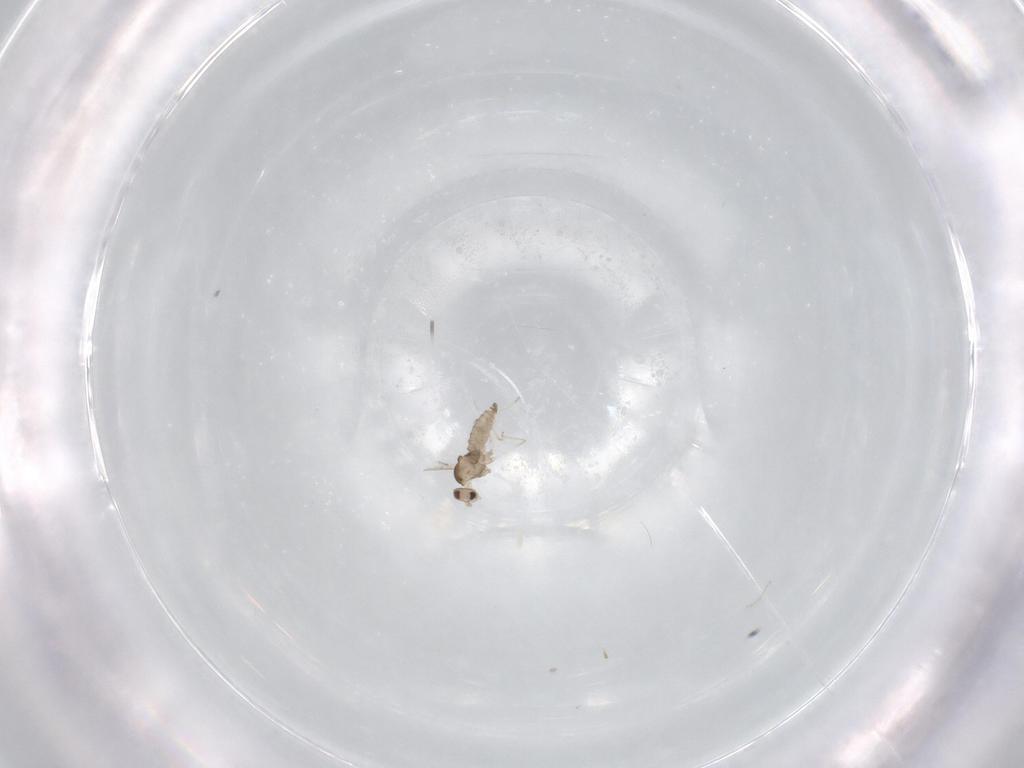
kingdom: Animalia
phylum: Arthropoda
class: Insecta
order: Diptera
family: Cecidomyiidae
